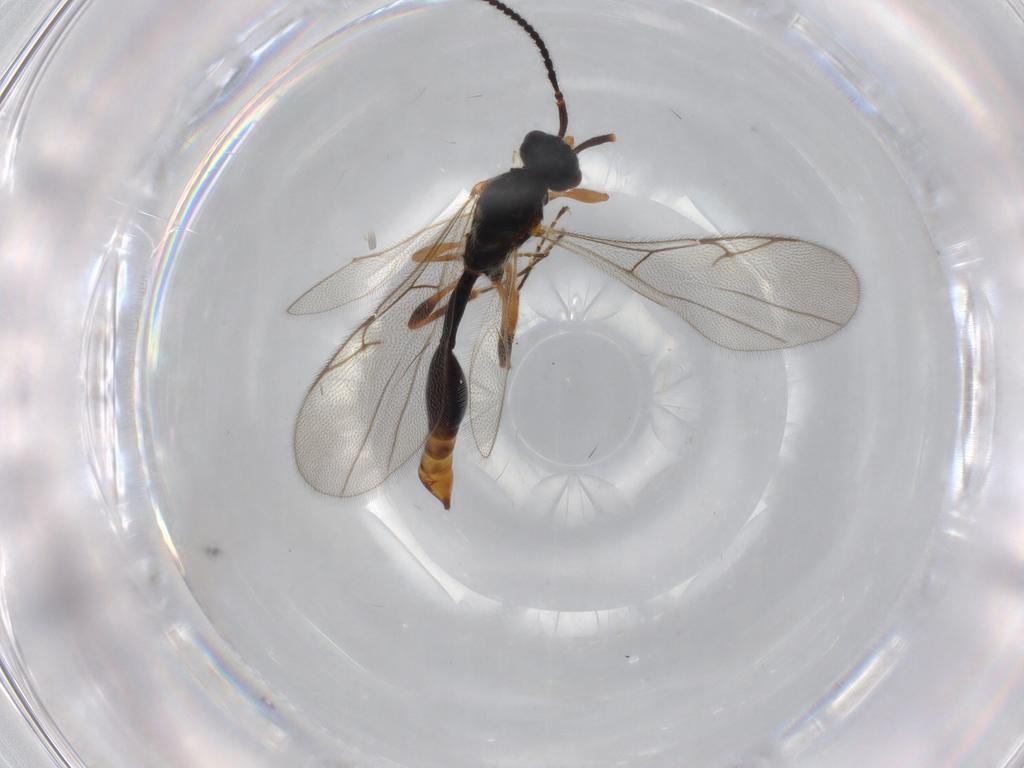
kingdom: Animalia
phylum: Arthropoda
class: Insecta
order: Hymenoptera
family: Diapriidae
